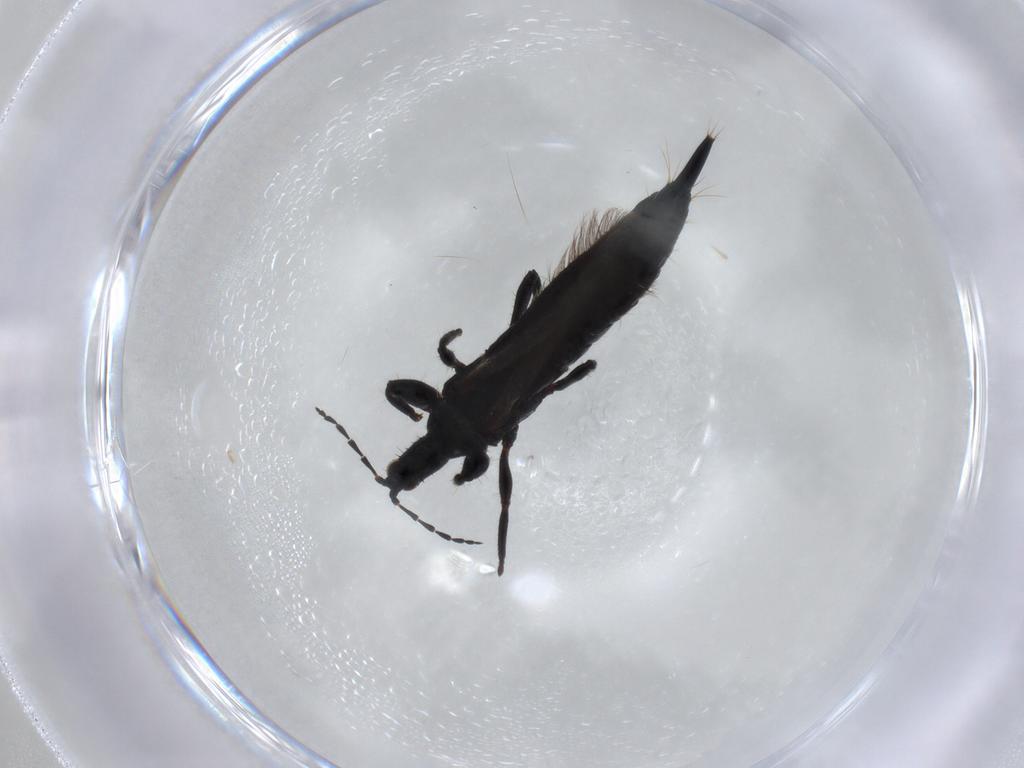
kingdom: Animalia
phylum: Arthropoda
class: Insecta
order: Thysanoptera
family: Phlaeothripidae
